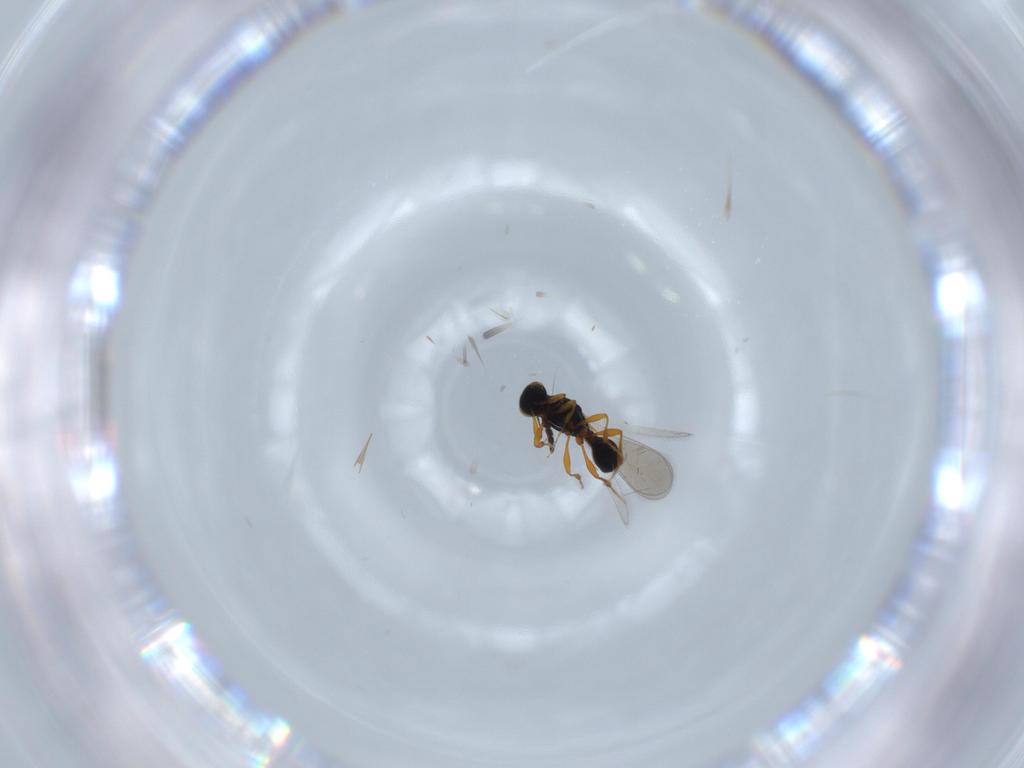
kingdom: Animalia
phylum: Arthropoda
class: Insecta
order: Hymenoptera
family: Platygastridae
